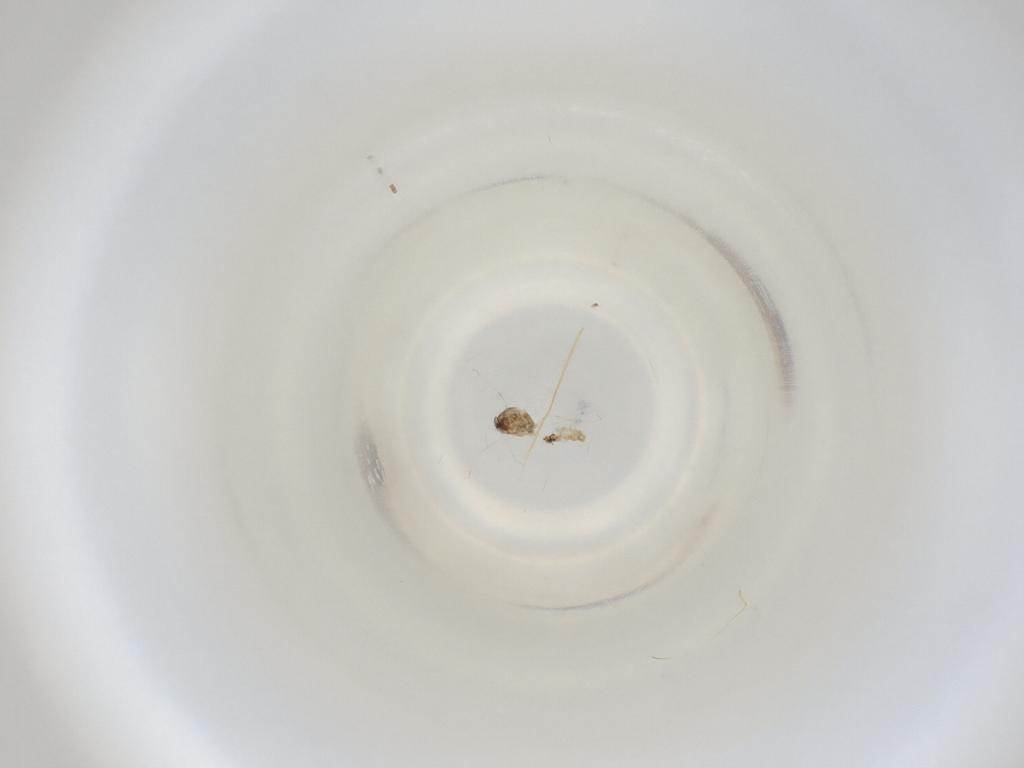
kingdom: Animalia
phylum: Arthropoda
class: Insecta
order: Diptera
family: Cecidomyiidae
